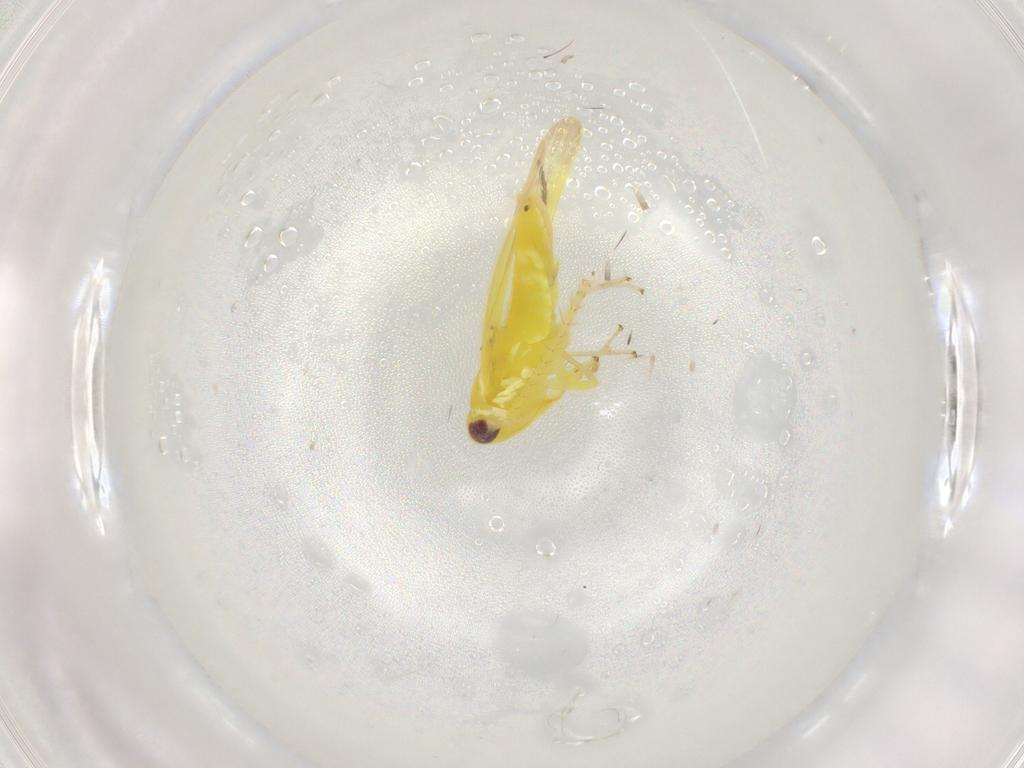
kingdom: Animalia
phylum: Arthropoda
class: Insecta
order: Hemiptera
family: Cicadellidae
